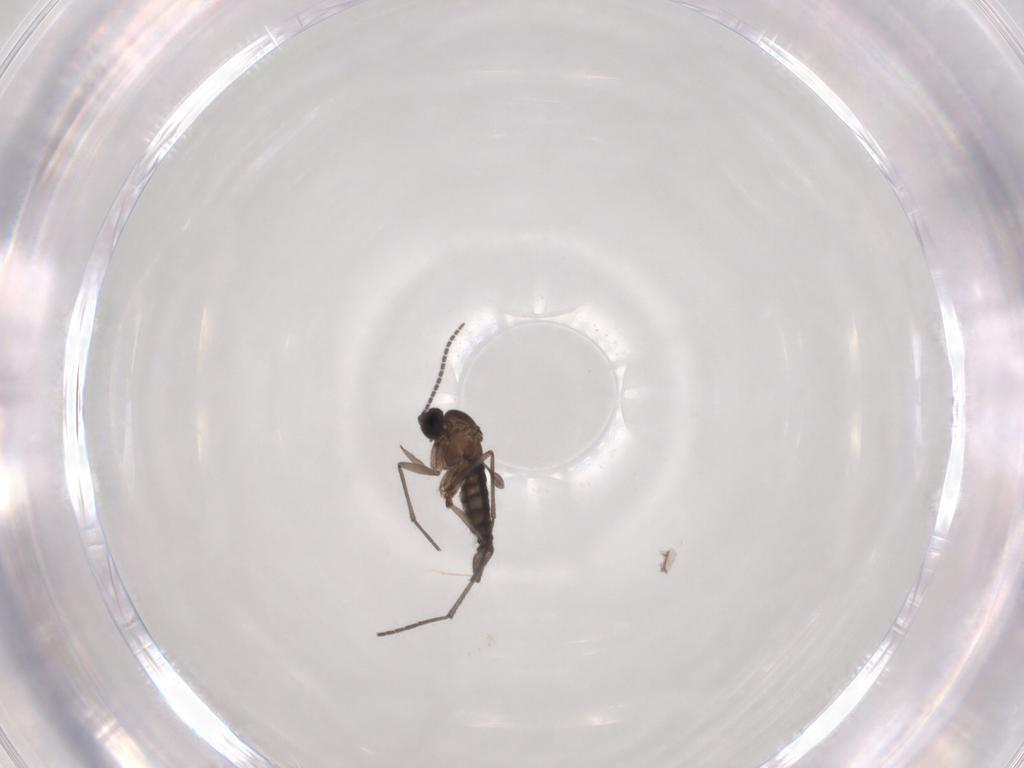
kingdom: Animalia
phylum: Arthropoda
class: Insecta
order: Diptera
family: Sciaridae
